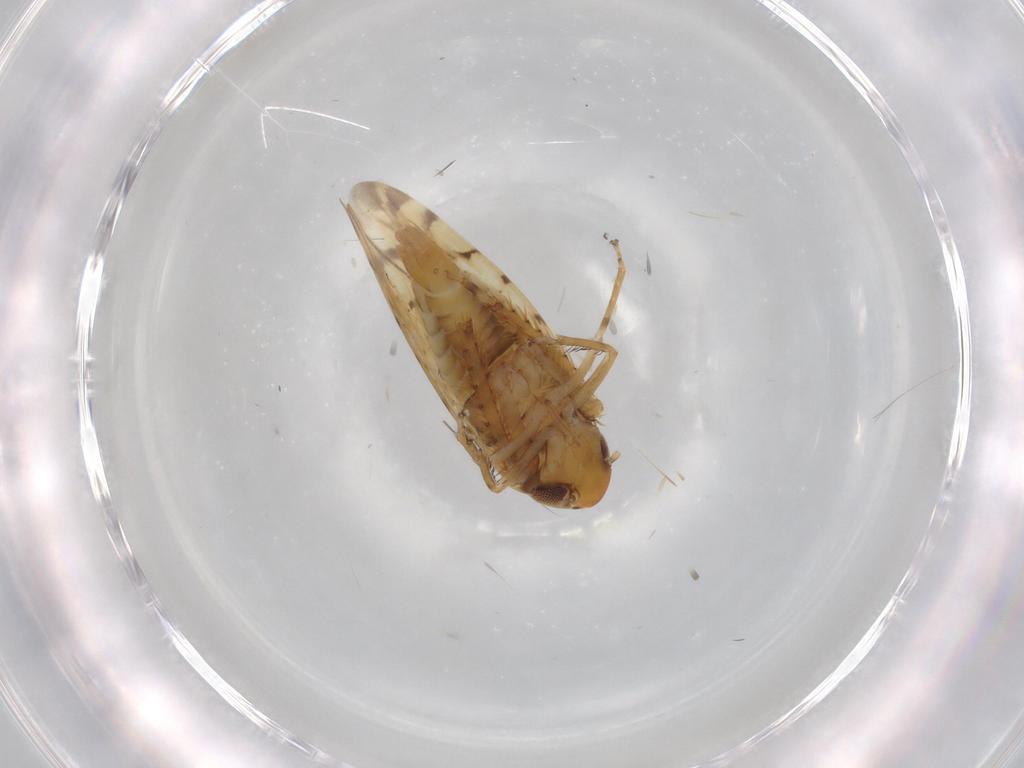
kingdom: Animalia
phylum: Arthropoda
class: Insecta
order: Hemiptera
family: Cicadellidae
